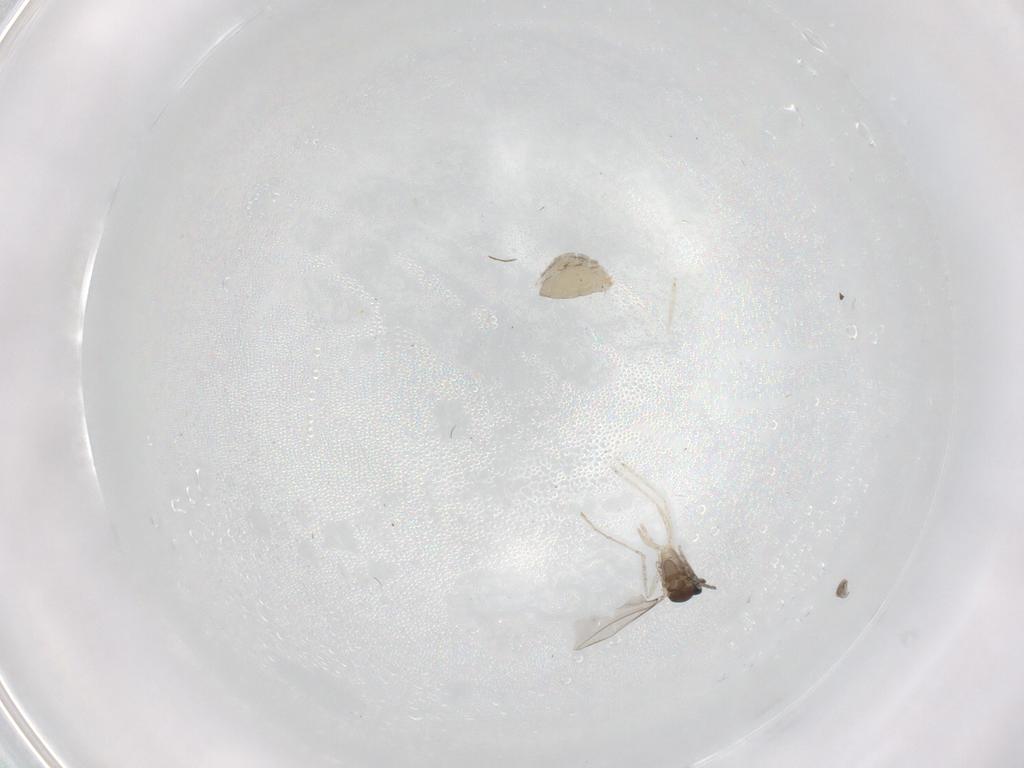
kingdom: Animalia
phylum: Arthropoda
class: Insecta
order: Diptera
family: Cecidomyiidae
